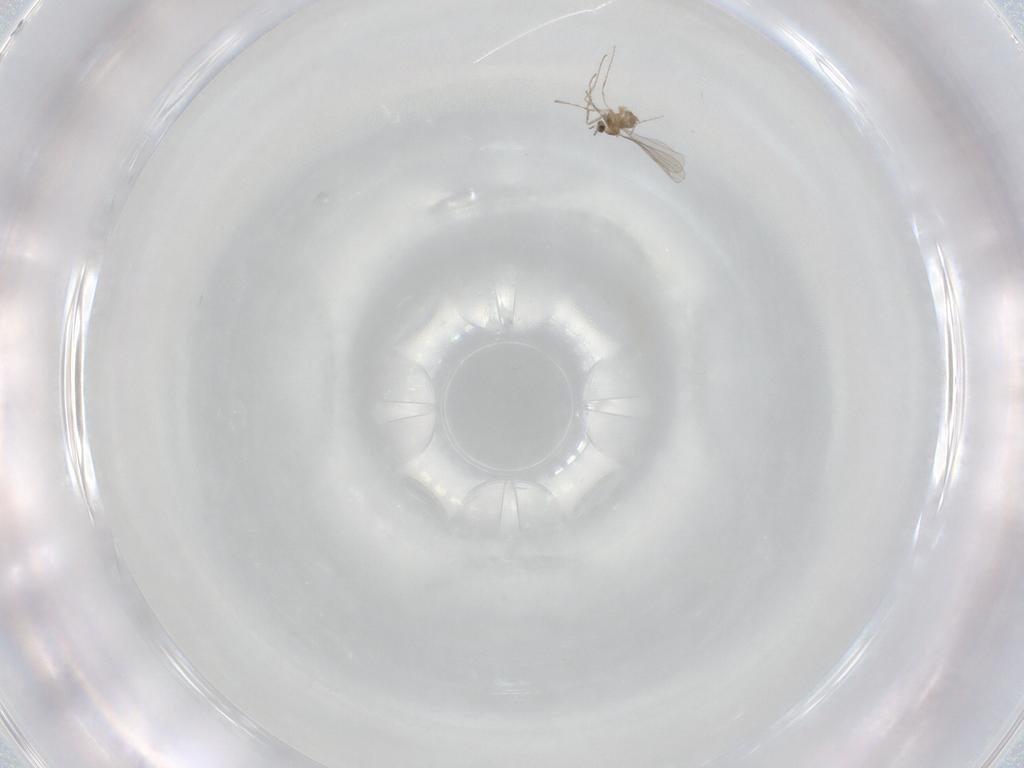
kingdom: Animalia
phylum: Arthropoda
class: Insecta
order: Diptera
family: Cecidomyiidae
